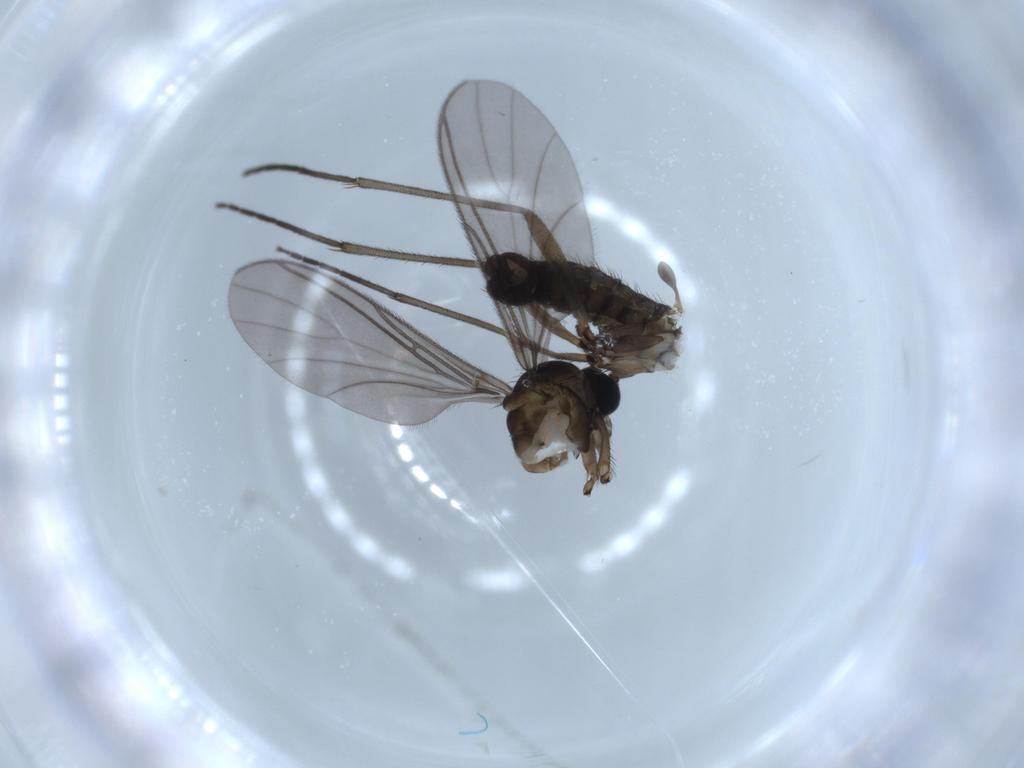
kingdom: Animalia
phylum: Arthropoda
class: Insecta
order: Diptera
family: Sciaridae
